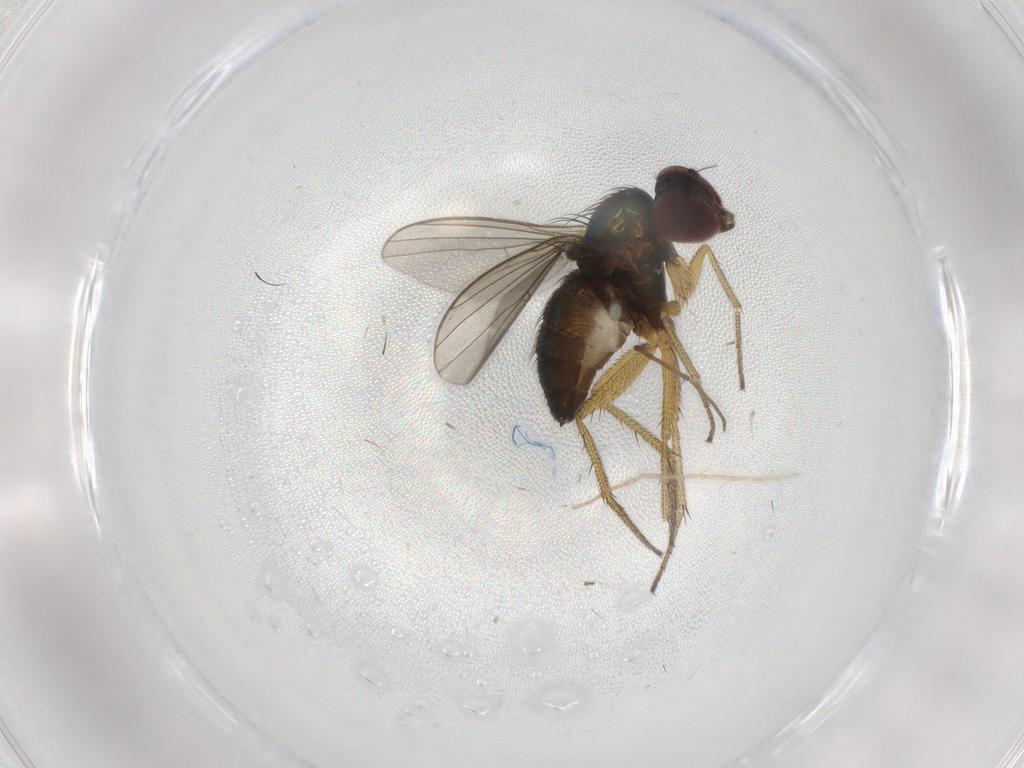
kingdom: Animalia
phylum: Arthropoda
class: Insecta
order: Diptera
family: Dolichopodidae
